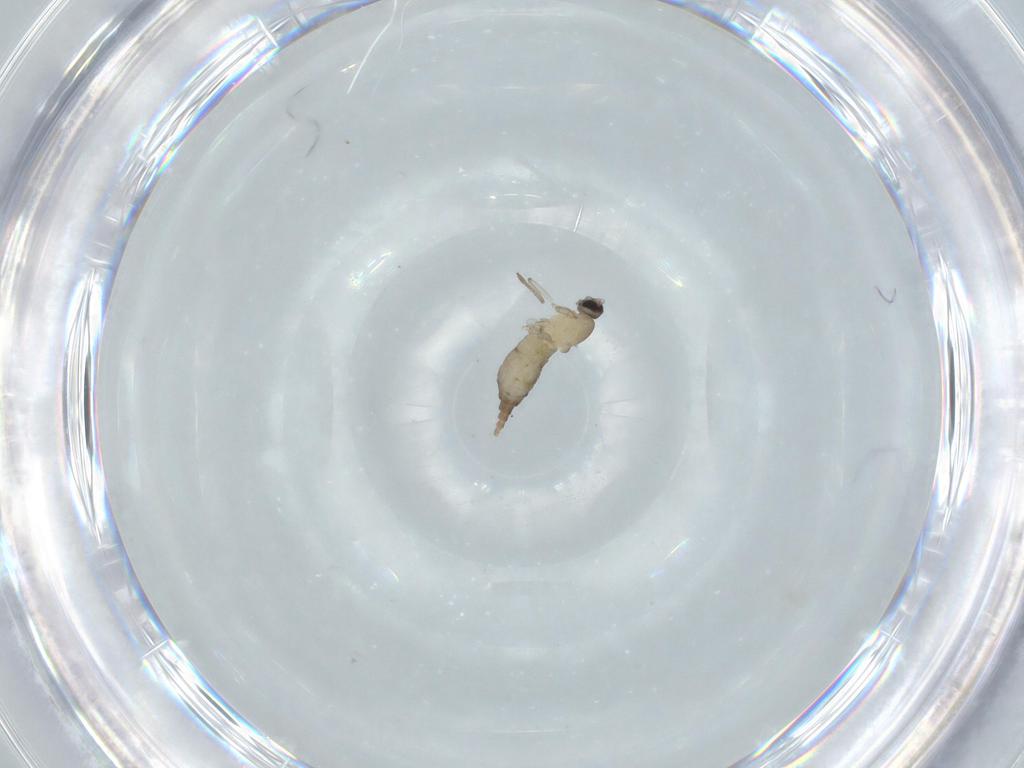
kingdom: Animalia
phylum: Arthropoda
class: Insecta
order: Diptera
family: Cecidomyiidae
